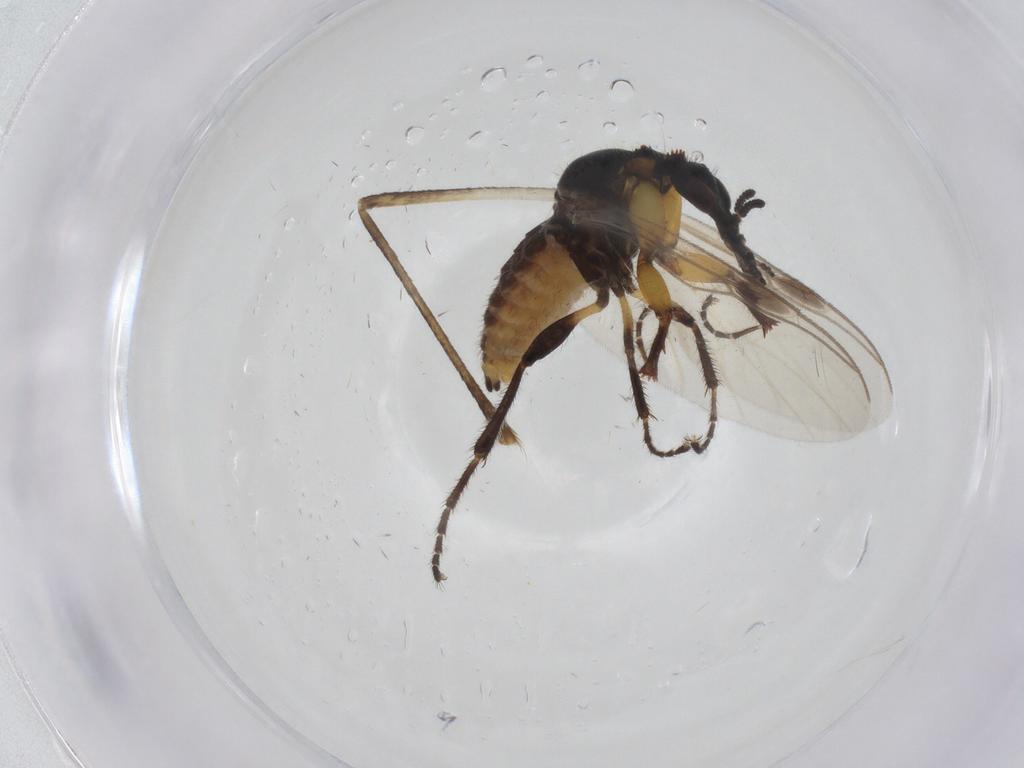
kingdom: Animalia
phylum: Arthropoda
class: Insecta
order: Diptera
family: Bibionidae
